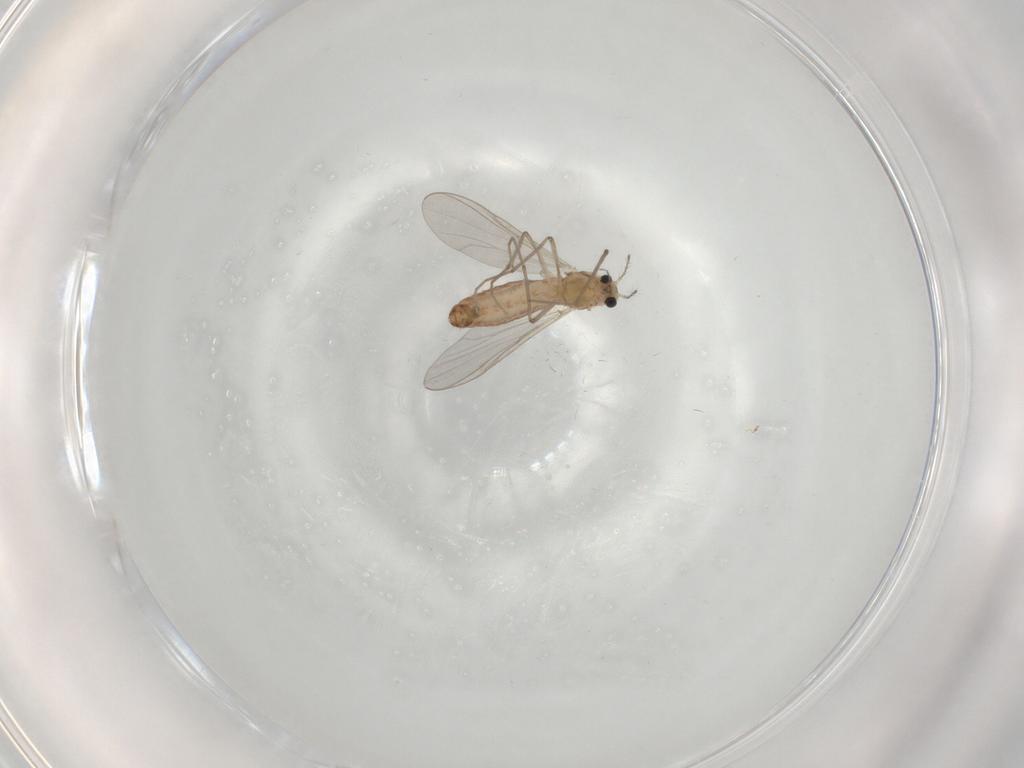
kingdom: Animalia
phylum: Arthropoda
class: Insecta
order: Diptera
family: Chironomidae
